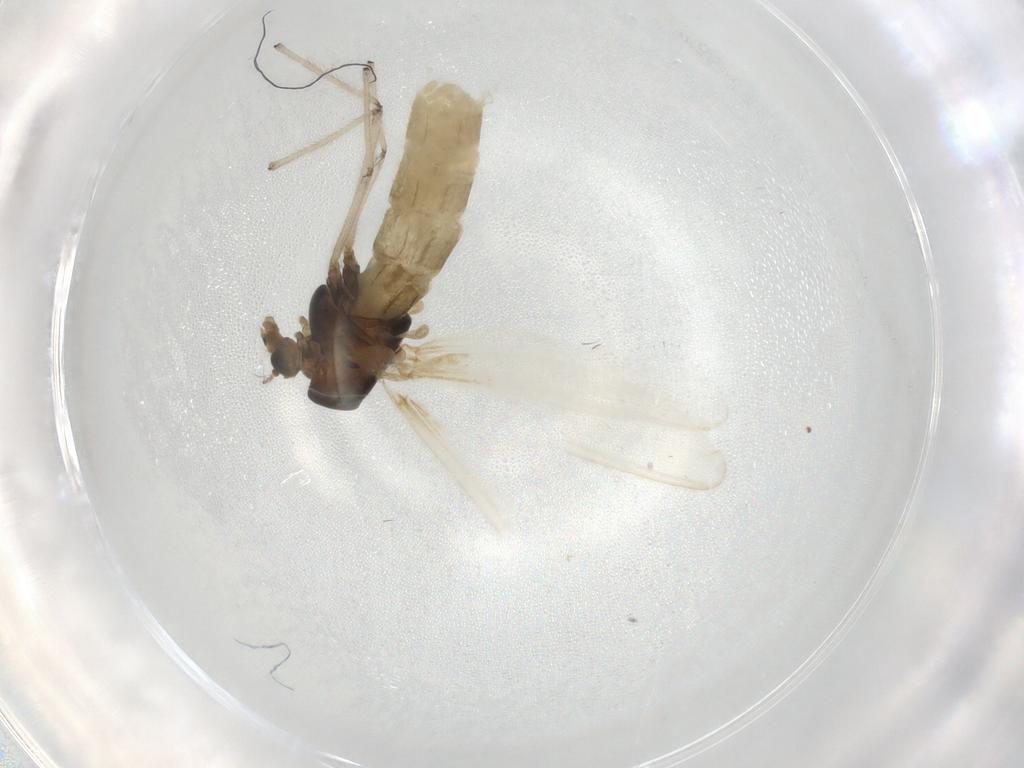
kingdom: Animalia
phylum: Arthropoda
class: Insecta
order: Diptera
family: Chironomidae
